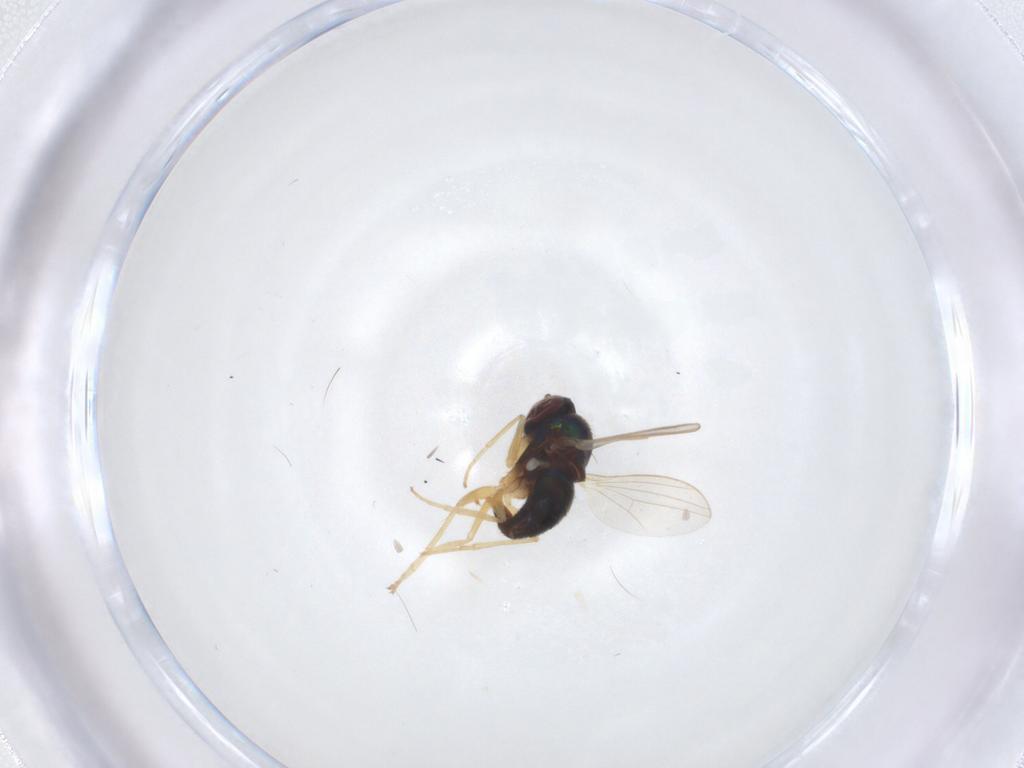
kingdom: Animalia
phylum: Arthropoda
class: Insecta
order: Diptera
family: Dolichopodidae
